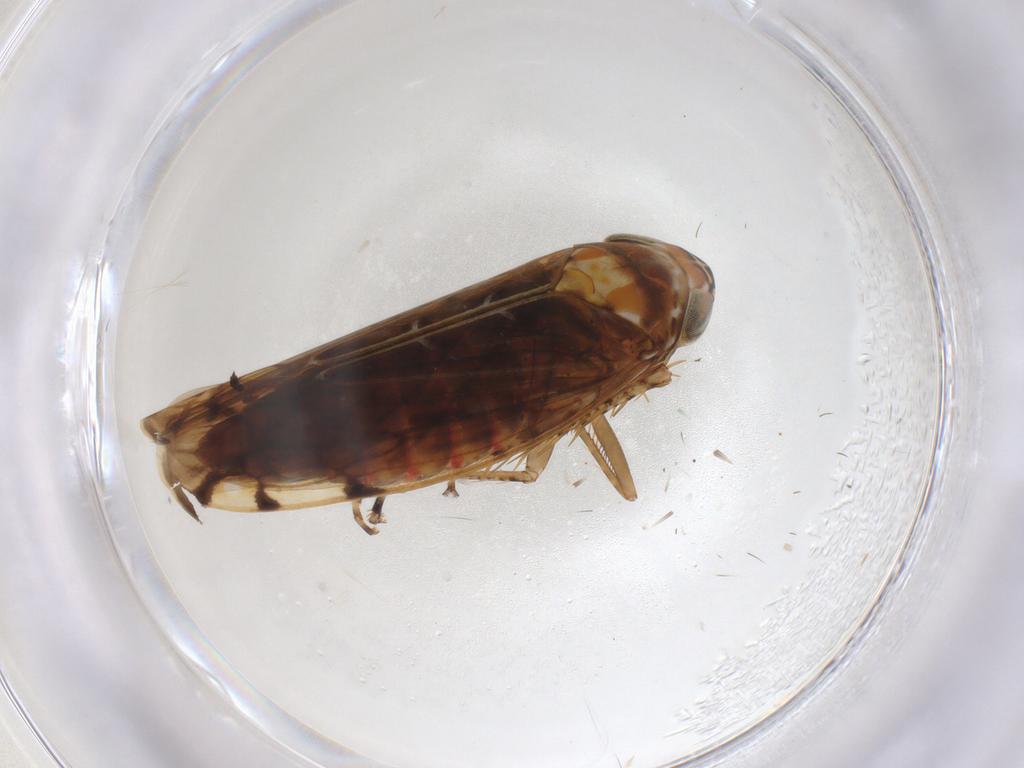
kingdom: Animalia
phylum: Arthropoda
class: Insecta
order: Hemiptera
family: Cicadellidae
